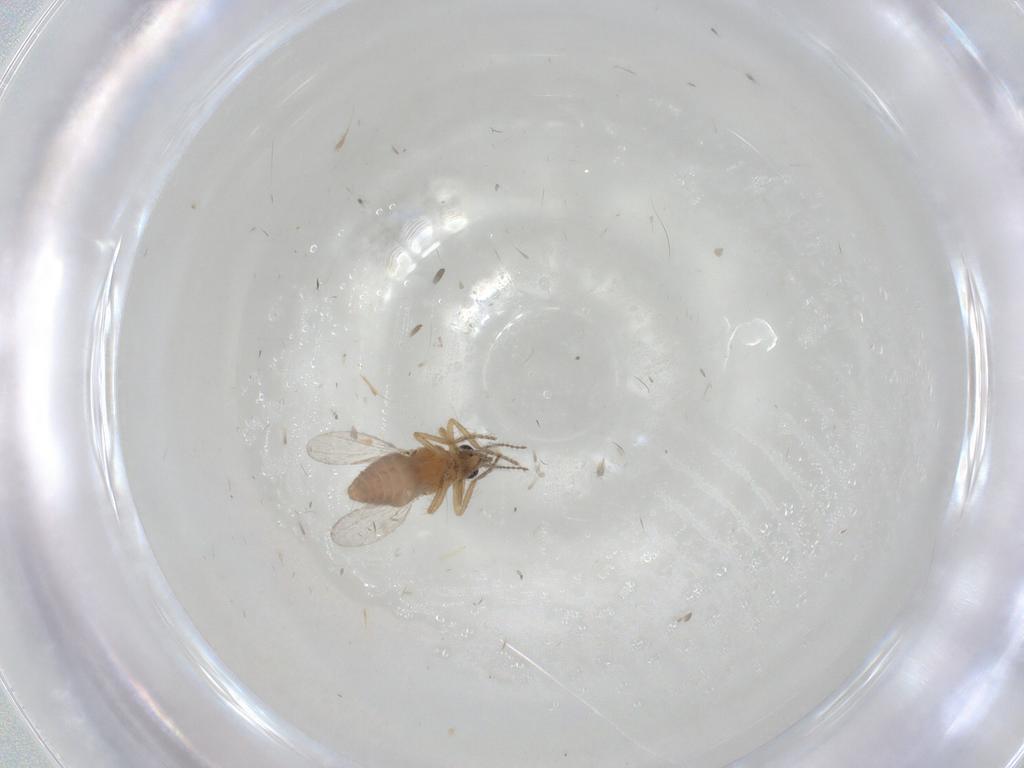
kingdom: Animalia
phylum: Arthropoda
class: Insecta
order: Diptera
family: Ceratopogonidae
